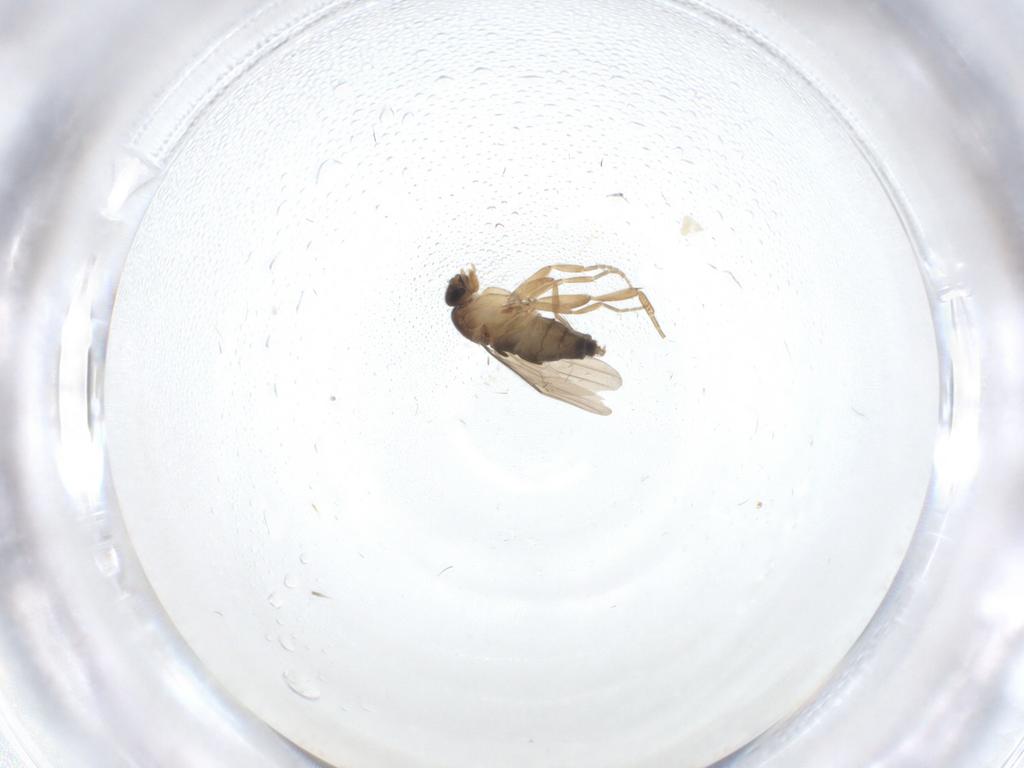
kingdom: Animalia
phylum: Arthropoda
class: Insecta
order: Diptera
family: Phoridae
